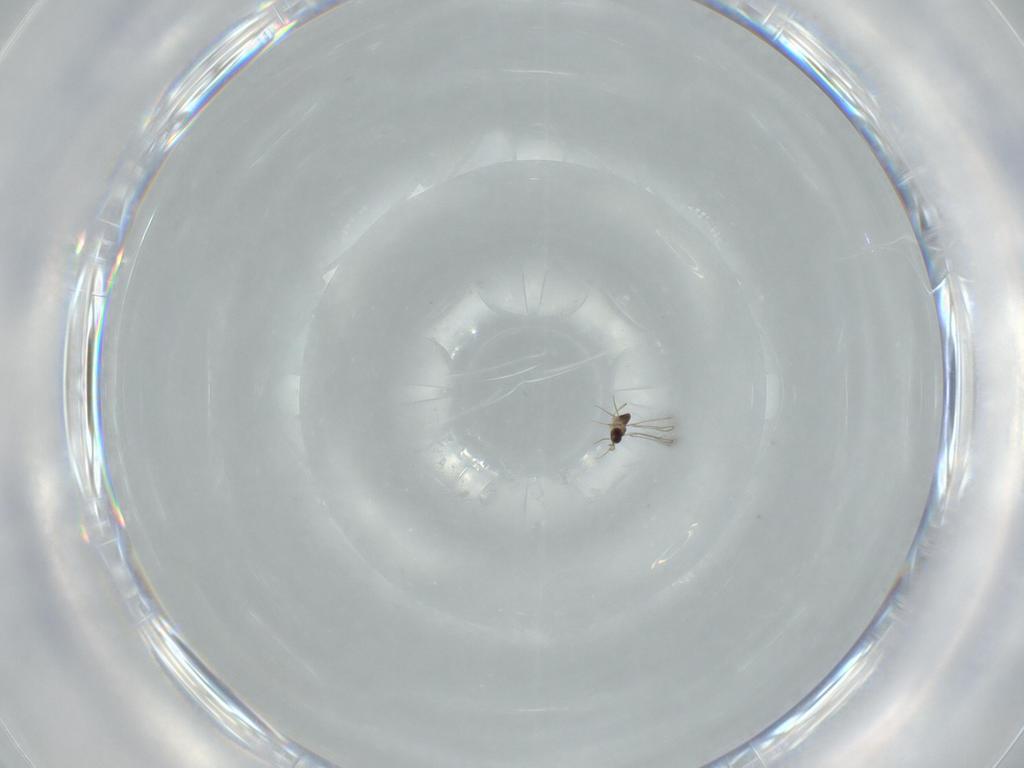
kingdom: Animalia
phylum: Arthropoda
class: Insecta
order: Hymenoptera
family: Mymaridae
